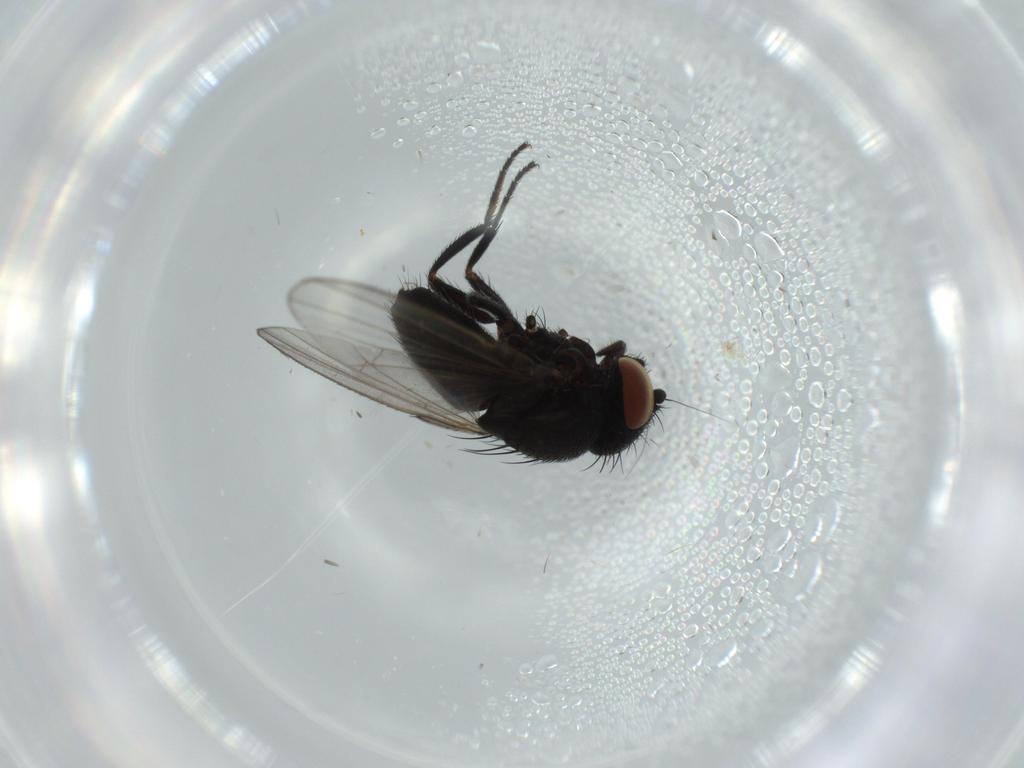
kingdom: Animalia
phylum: Arthropoda
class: Insecta
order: Diptera
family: Milichiidae
